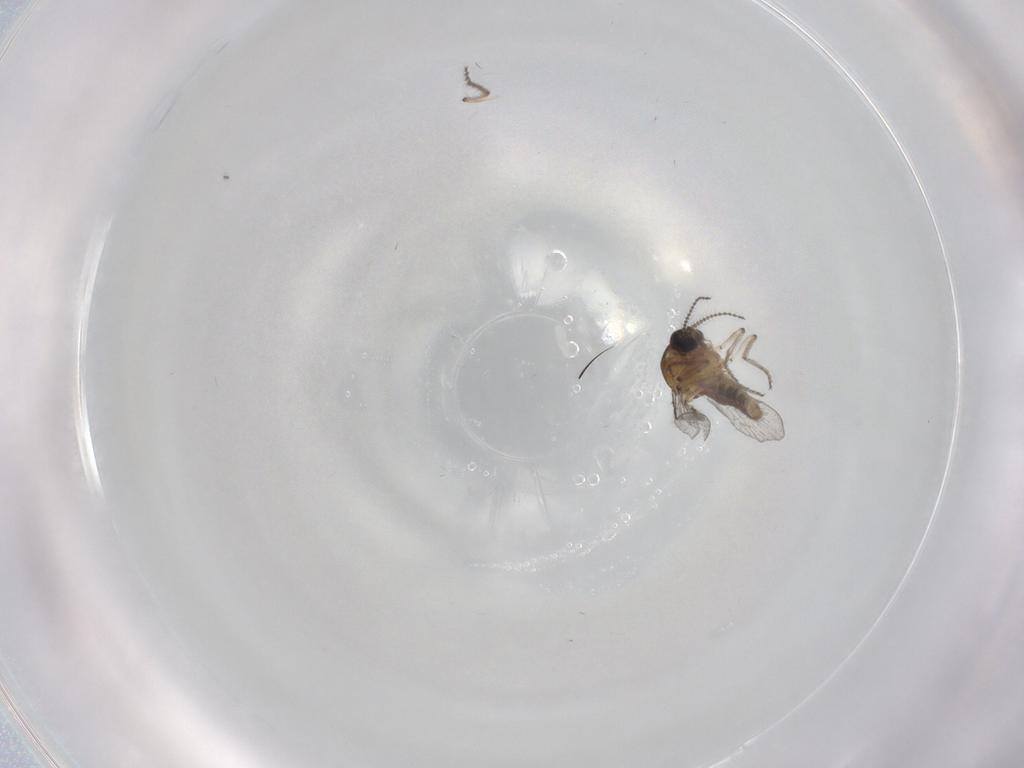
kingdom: Animalia
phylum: Arthropoda
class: Insecta
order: Diptera
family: Ceratopogonidae
